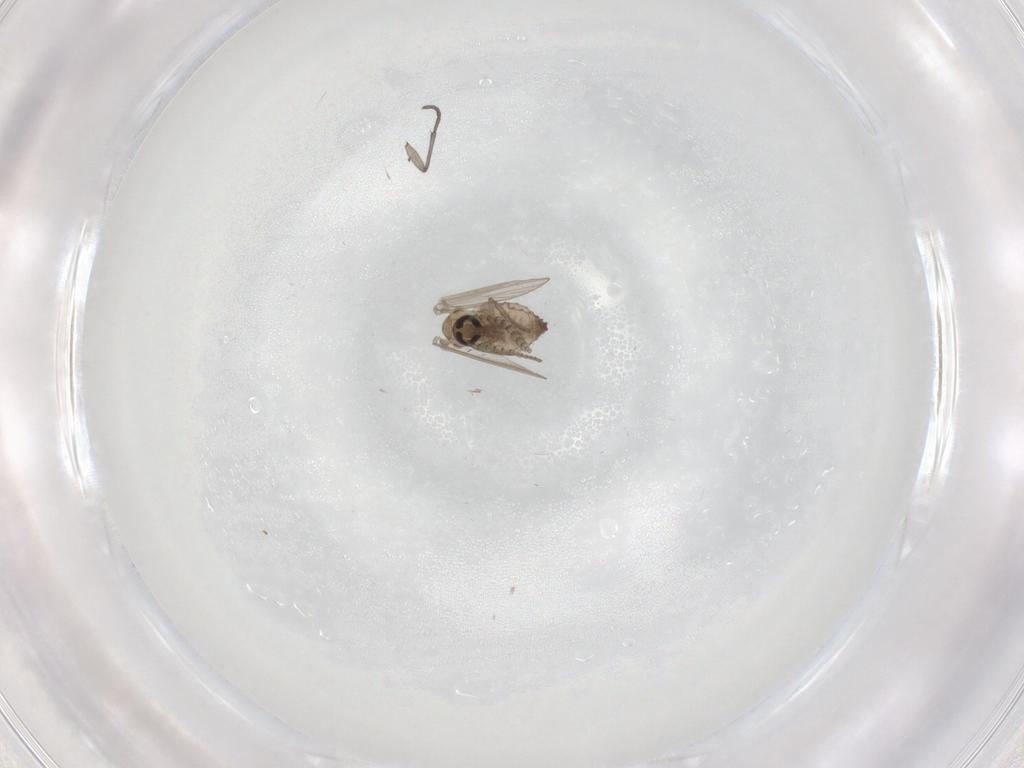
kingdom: Animalia
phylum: Arthropoda
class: Insecta
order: Diptera
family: Sciaridae
